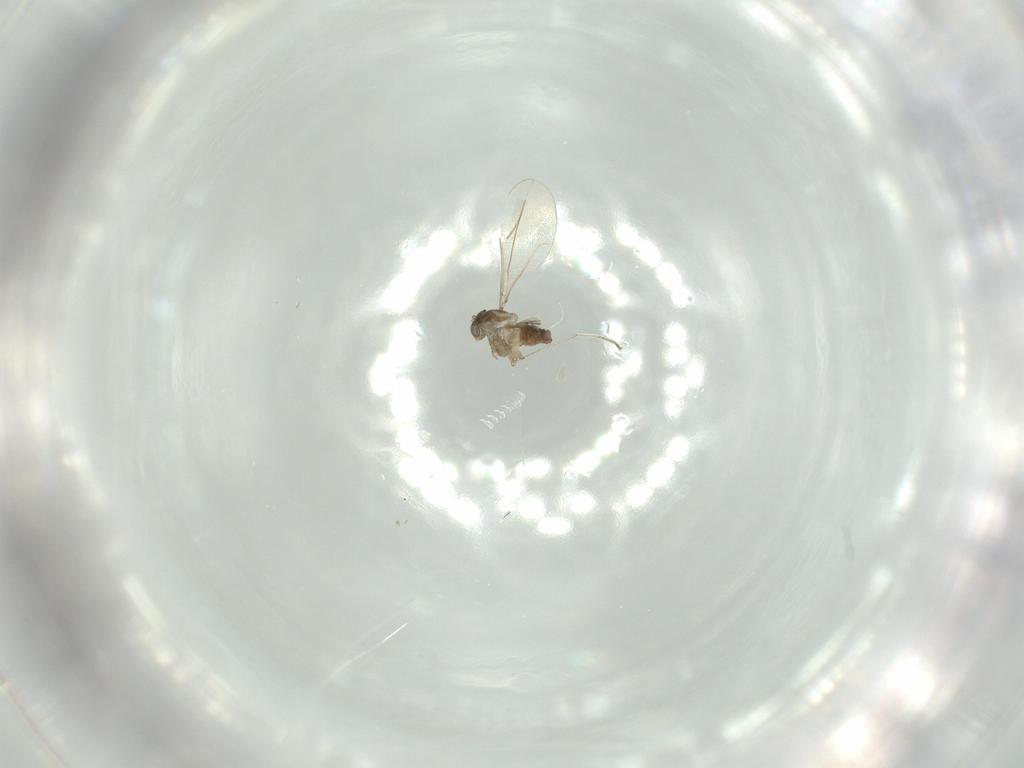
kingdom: Animalia
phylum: Arthropoda
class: Insecta
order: Diptera
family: Cecidomyiidae
